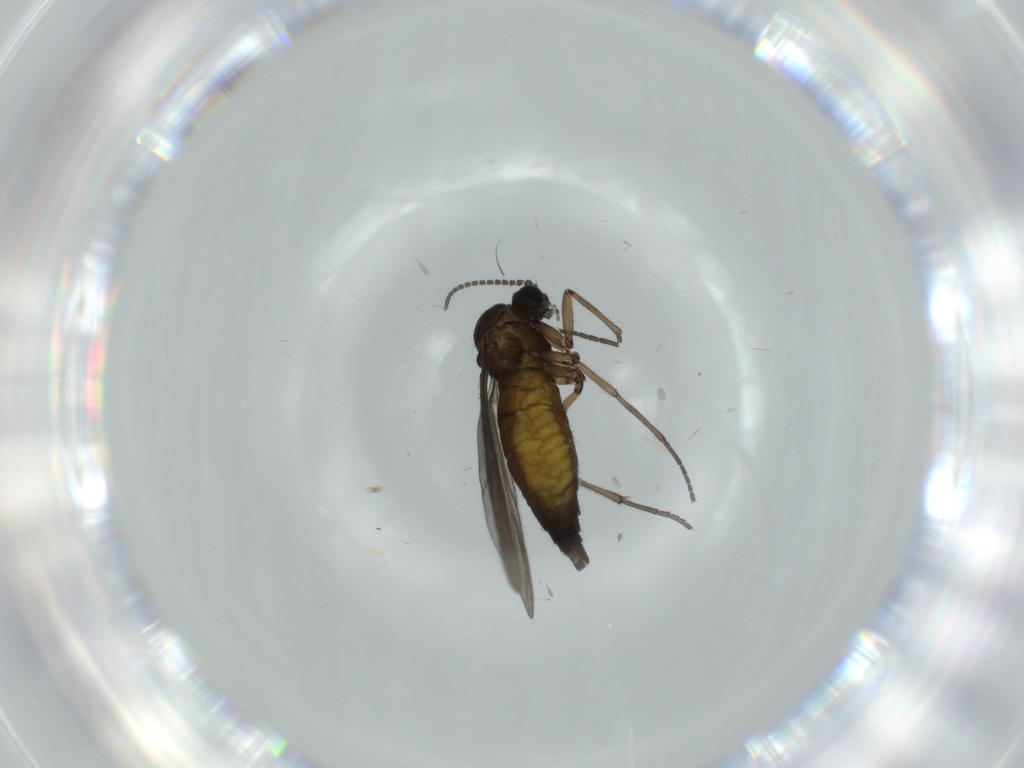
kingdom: Animalia
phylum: Arthropoda
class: Insecta
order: Diptera
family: Sciaridae
